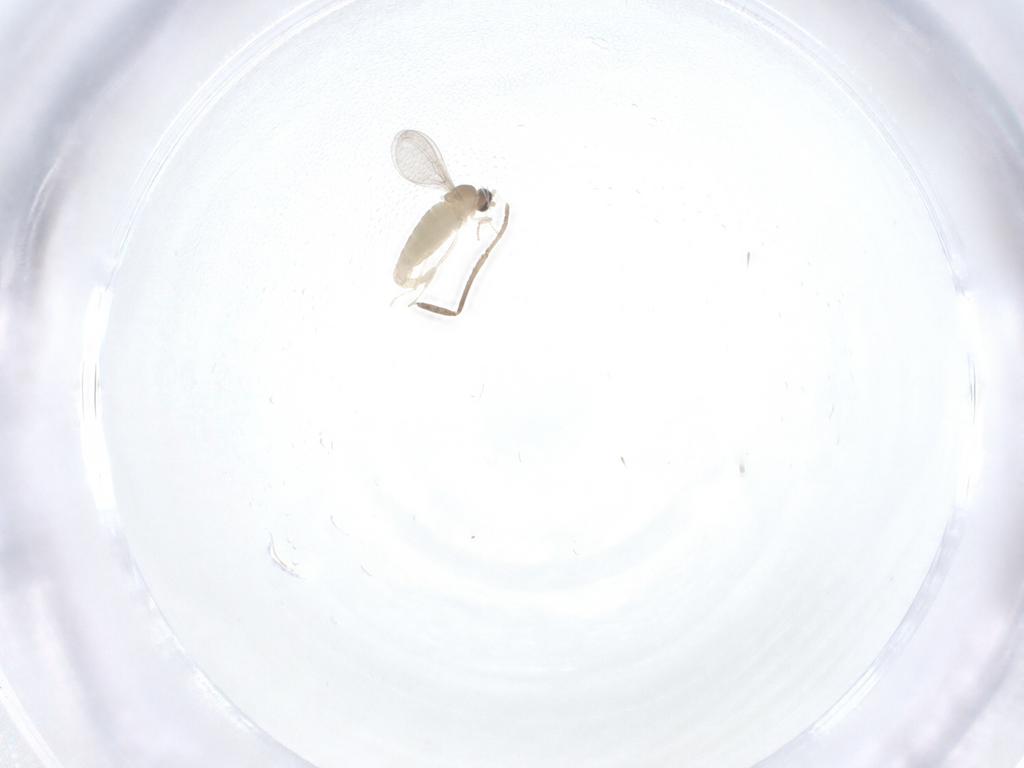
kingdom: Animalia
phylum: Arthropoda
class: Insecta
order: Diptera
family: Cecidomyiidae
